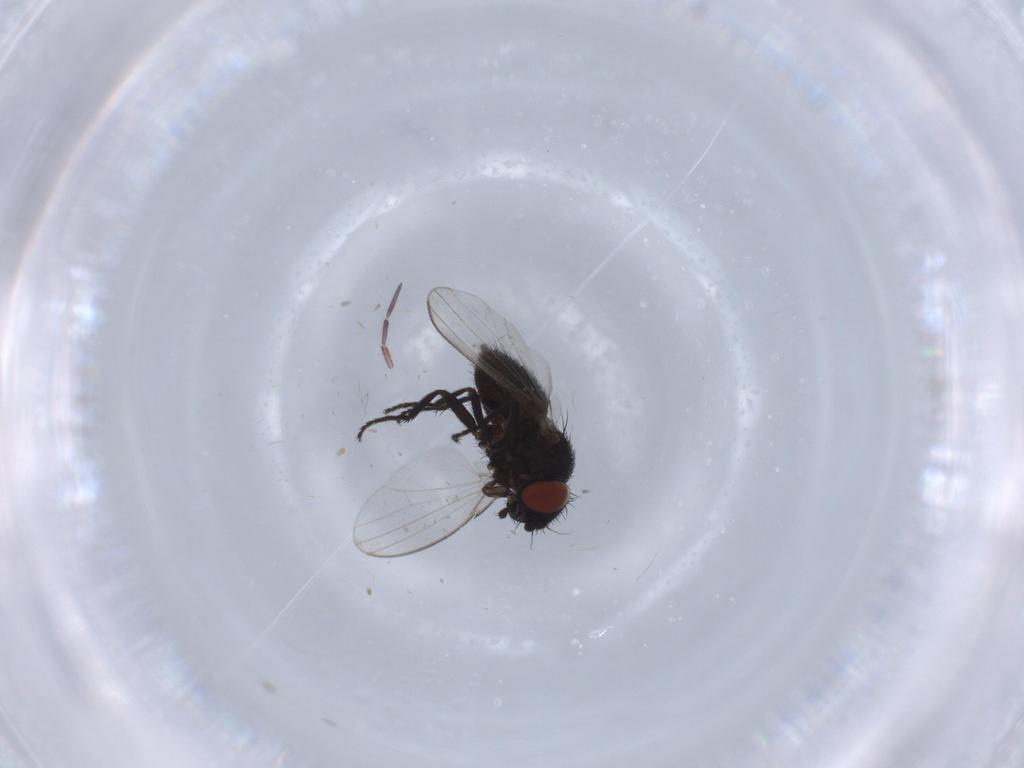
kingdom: Animalia
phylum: Arthropoda
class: Insecta
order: Diptera
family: Milichiidae
